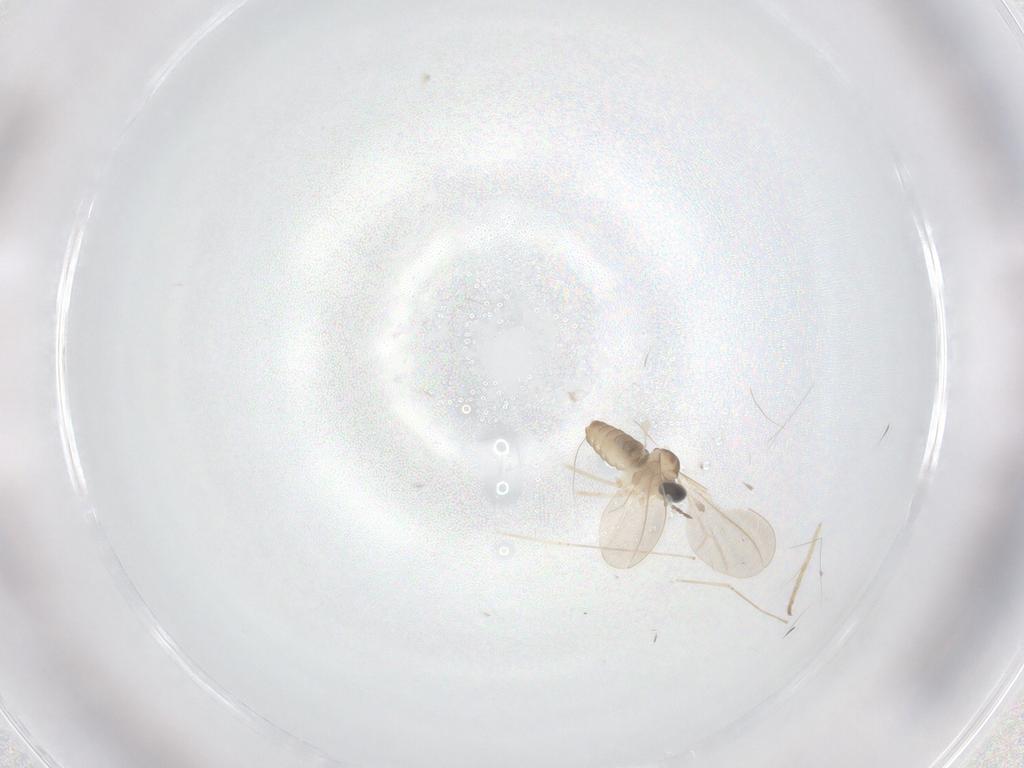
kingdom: Animalia
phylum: Arthropoda
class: Insecta
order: Diptera
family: Cecidomyiidae
